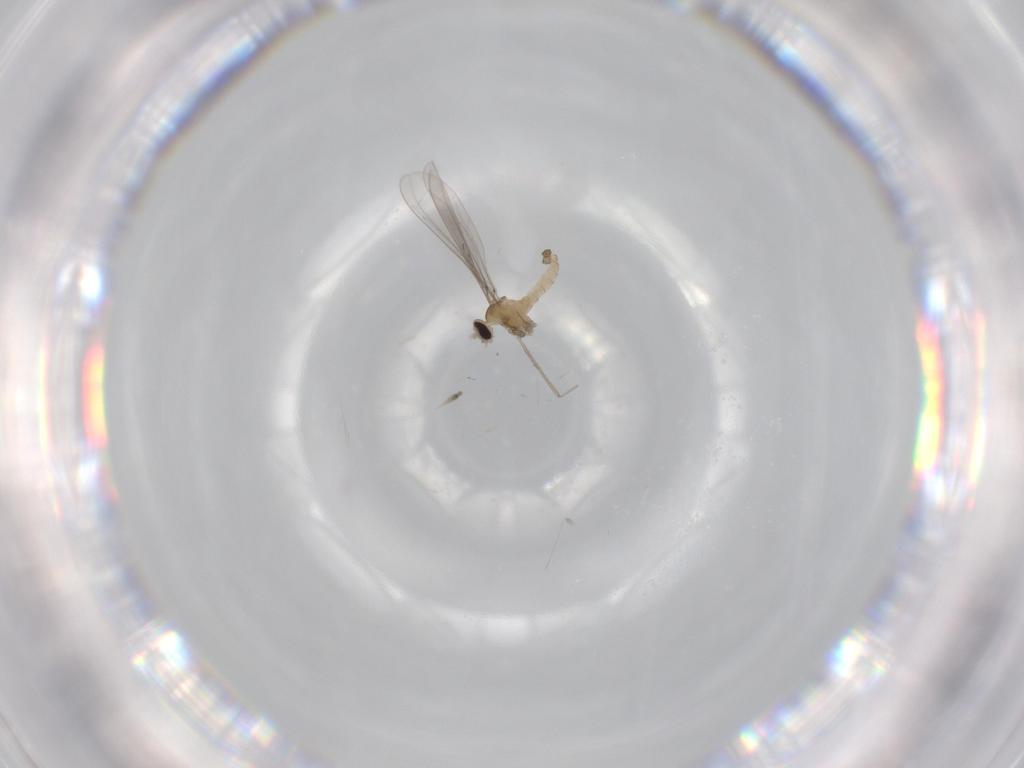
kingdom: Animalia
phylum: Arthropoda
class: Insecta
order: Diptera
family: Cecidomyiidae
